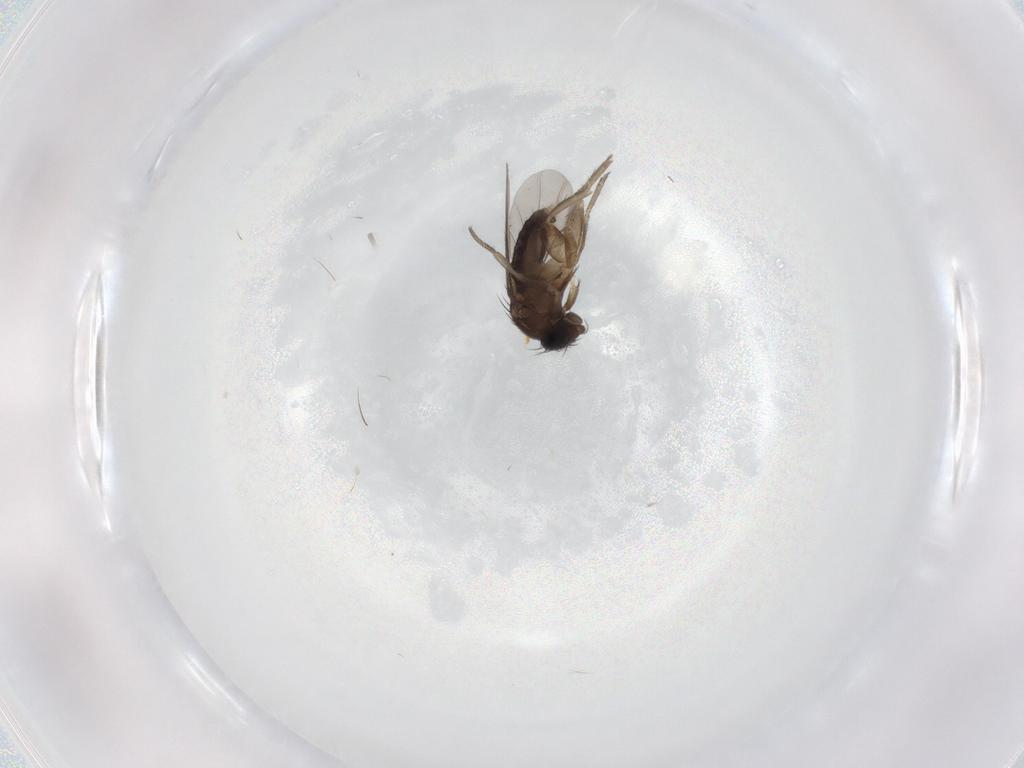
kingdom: Animalia
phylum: Arthropoda
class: Insecta
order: Diptera
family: Phoridae
